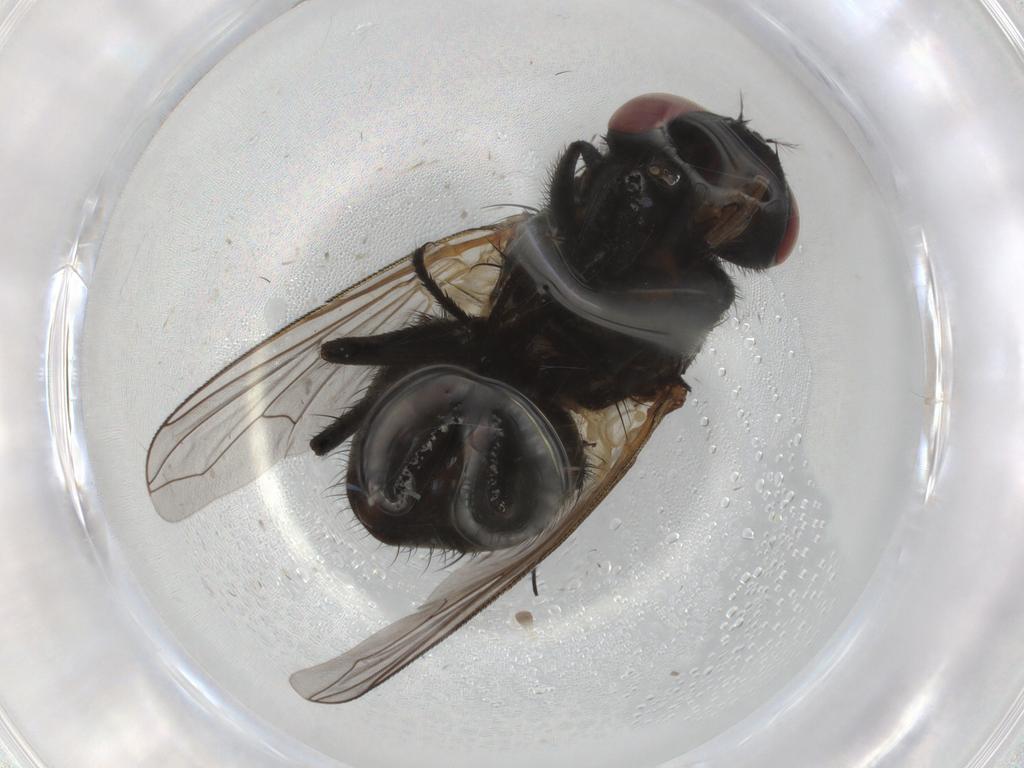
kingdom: Animalia
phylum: Arthropoda
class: Insecta
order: Diptera
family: Muscidae
